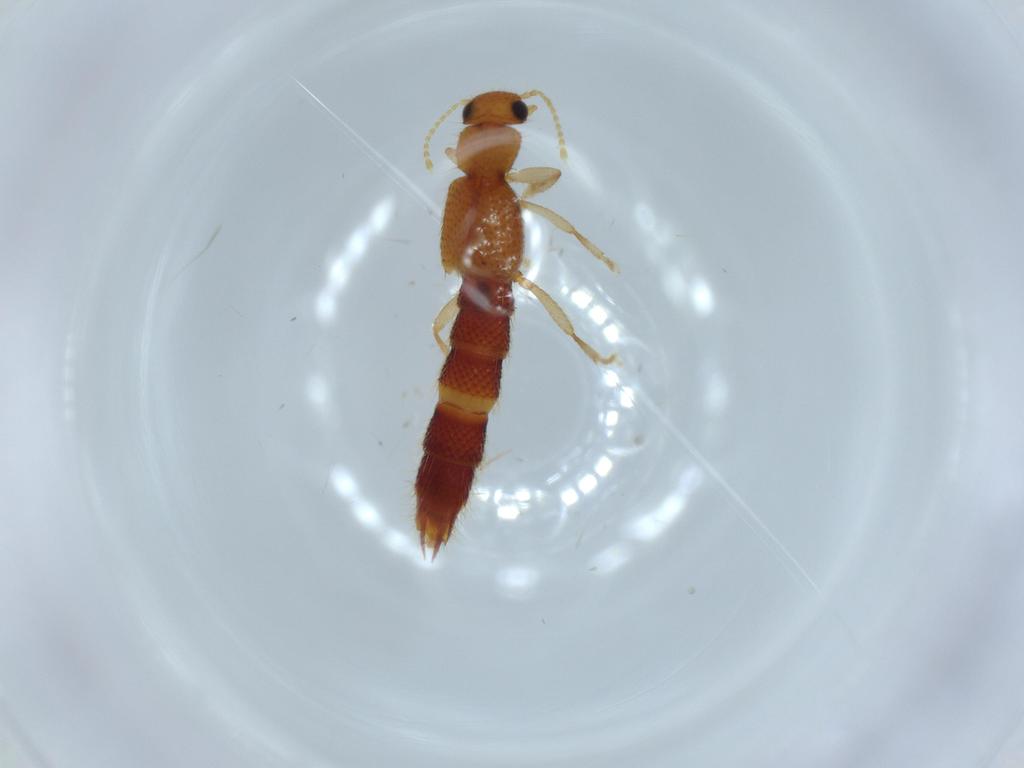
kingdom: Animalia
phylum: Arthropoda
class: Insecta
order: Coleoptera
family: Staphylinidae
